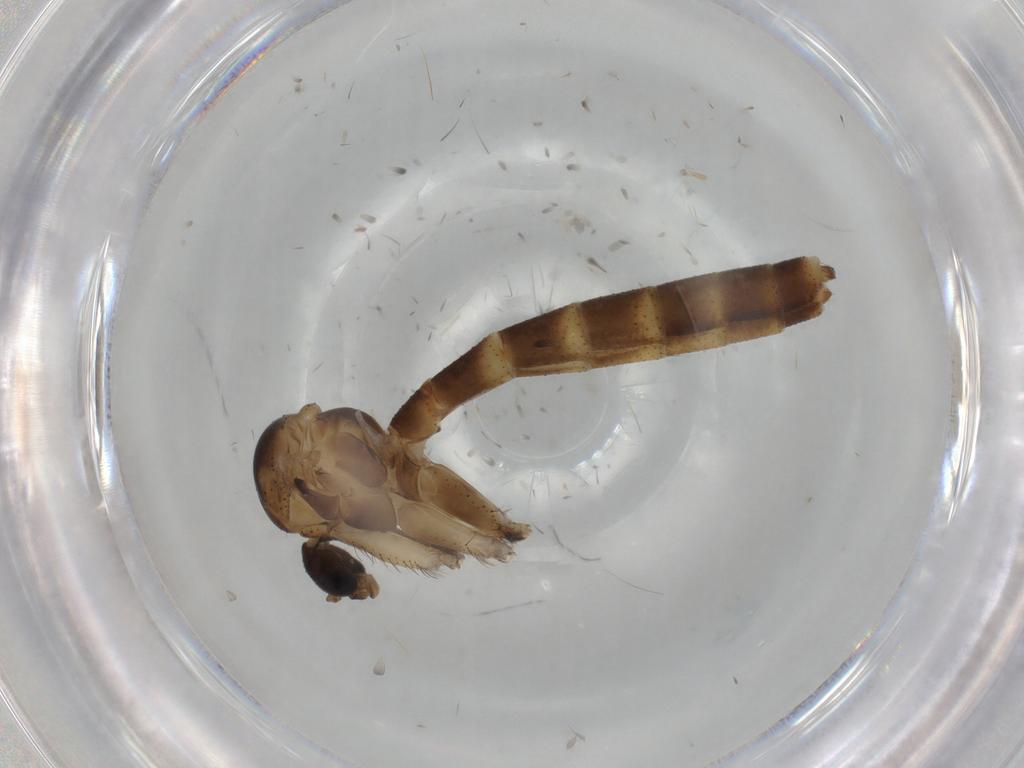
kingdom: Animalia
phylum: Arthropoda
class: Insecta
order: Diptera
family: Mycetophilidae
